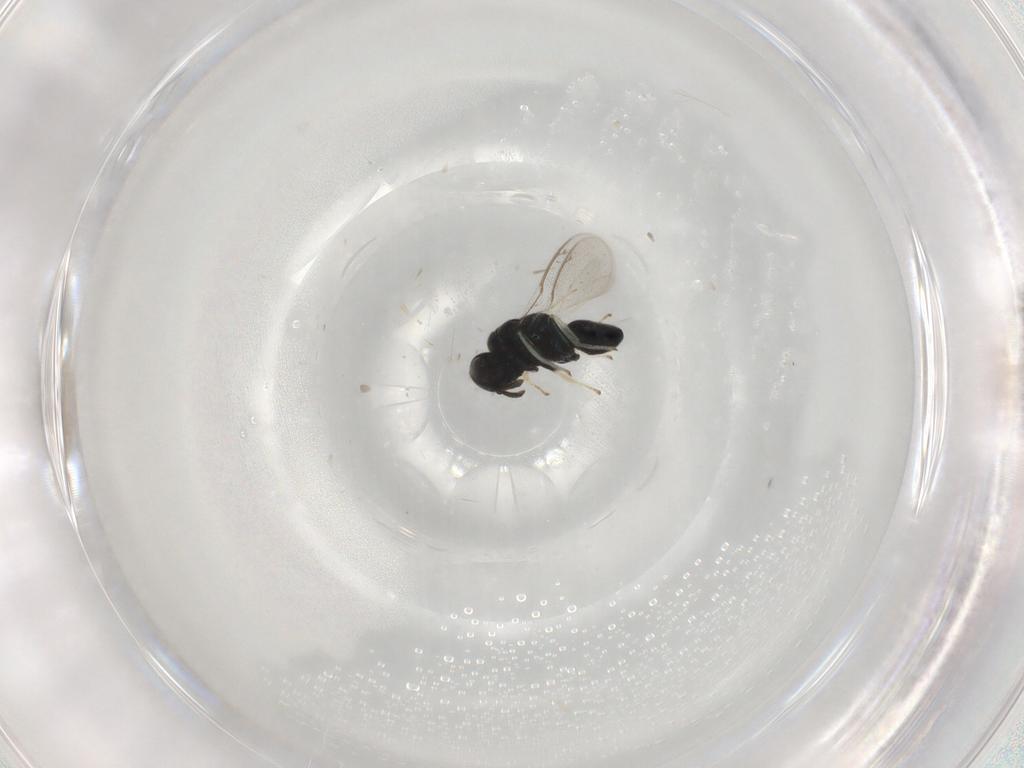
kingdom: Animalia
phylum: Arthropoda
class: Insecta
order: Hymenoptera
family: Herbertiidae
